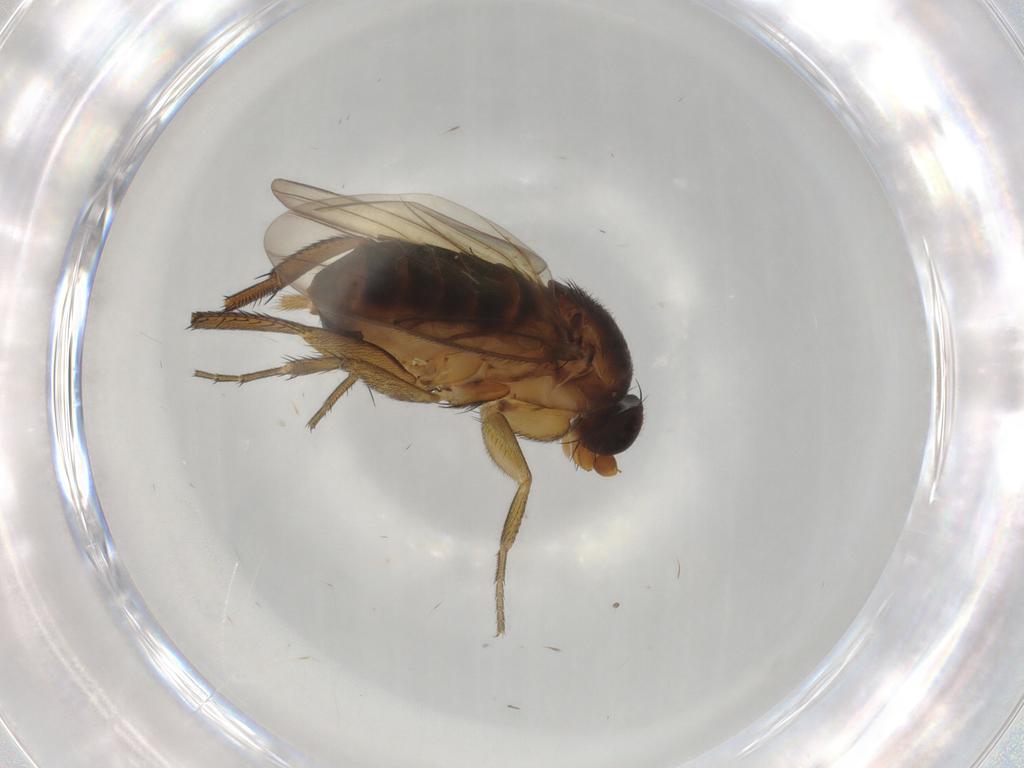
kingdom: Animalia
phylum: Arthropoda
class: Insecta
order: Diptera
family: Phoridae
